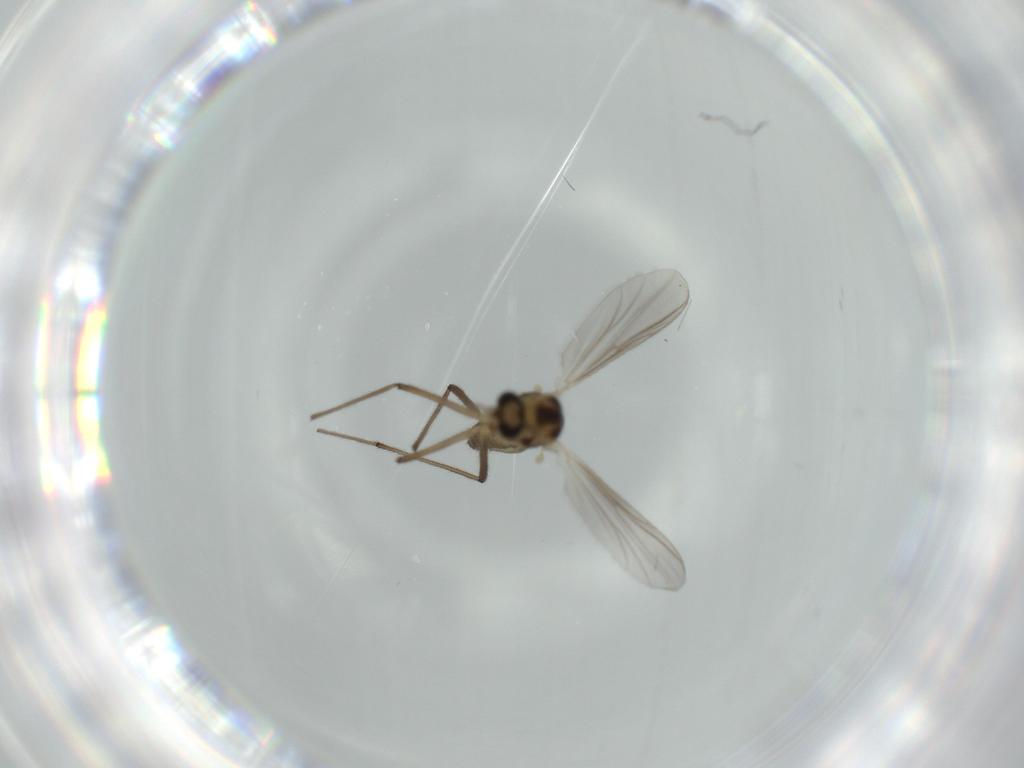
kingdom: Animalia
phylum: Arthropoda
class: Insecta
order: Diptera
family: Chironomidae
